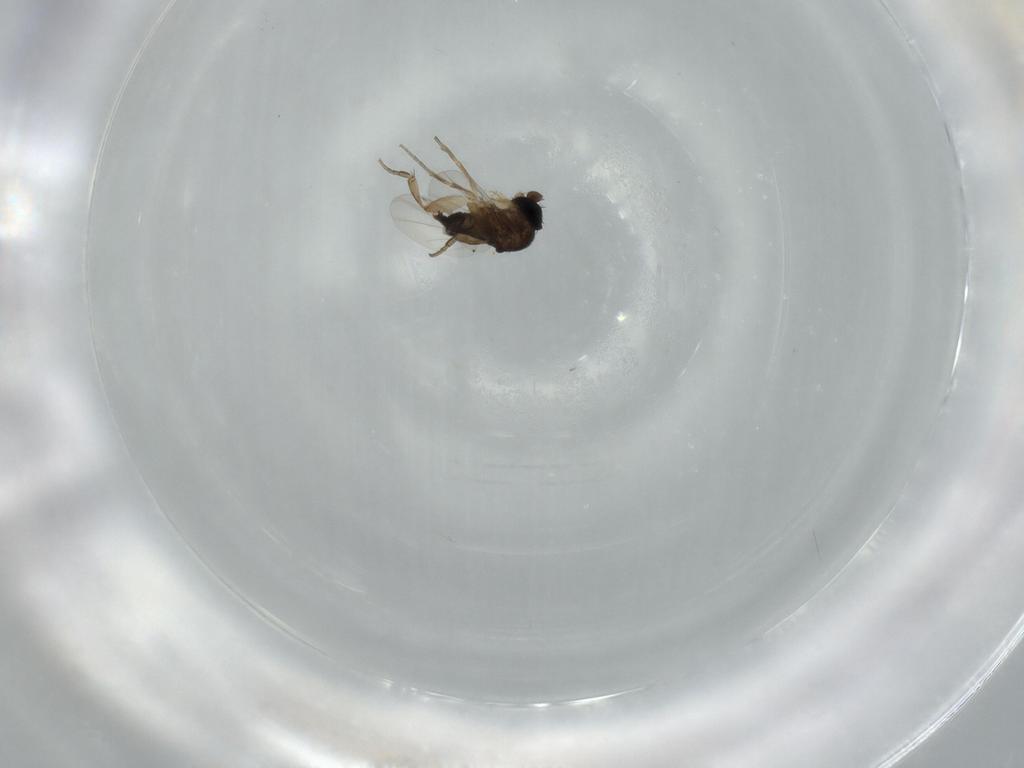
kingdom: Animalia
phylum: Arthropoda
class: Insecta
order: Diptera
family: Phoridae
